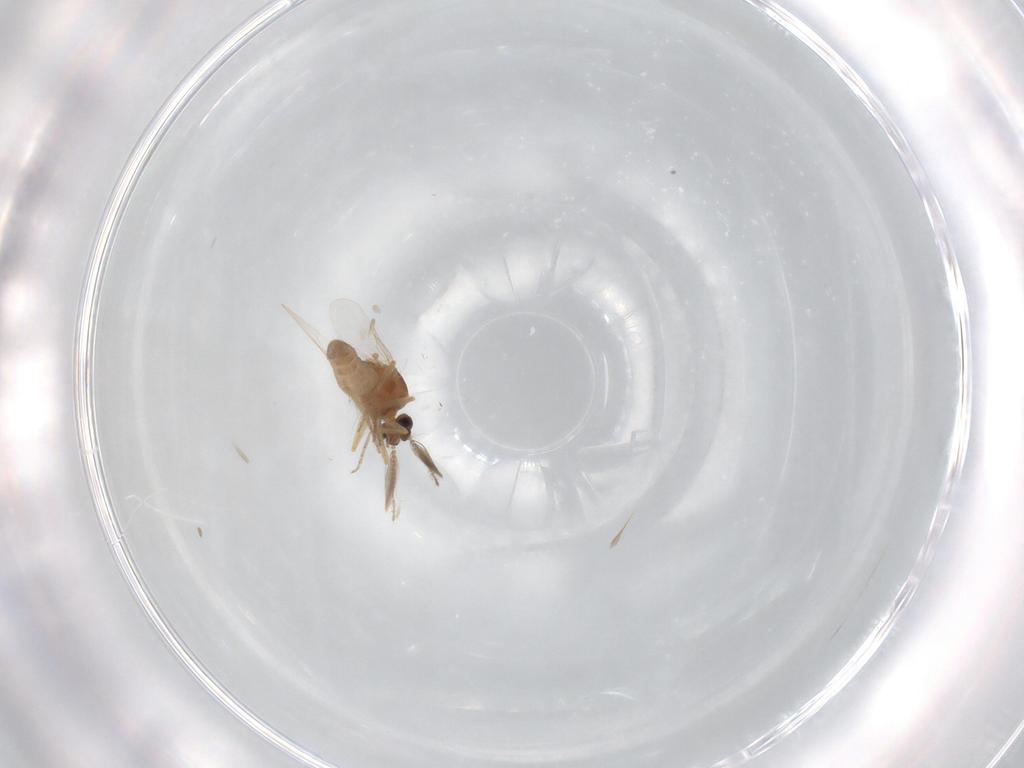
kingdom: Animalia
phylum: Arthropoda
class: Insecta
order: Diptera
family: Ceratopogonidae
